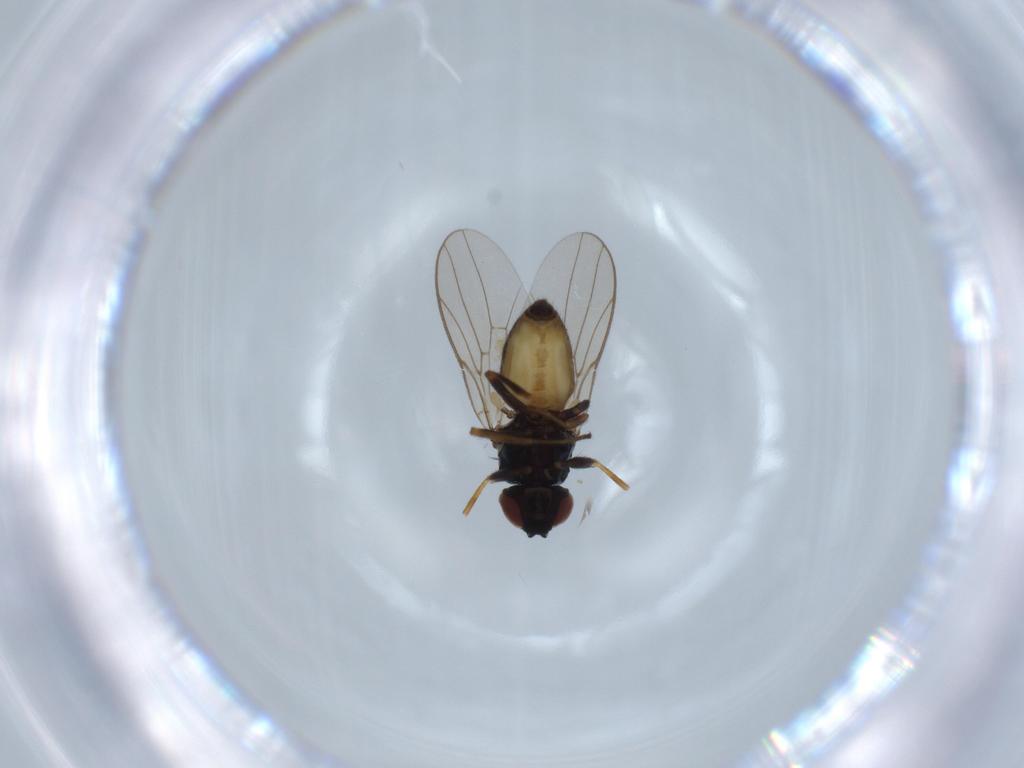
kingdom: Animalia
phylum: Arthropoda
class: Insecta
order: Diptera
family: Chloropidae
